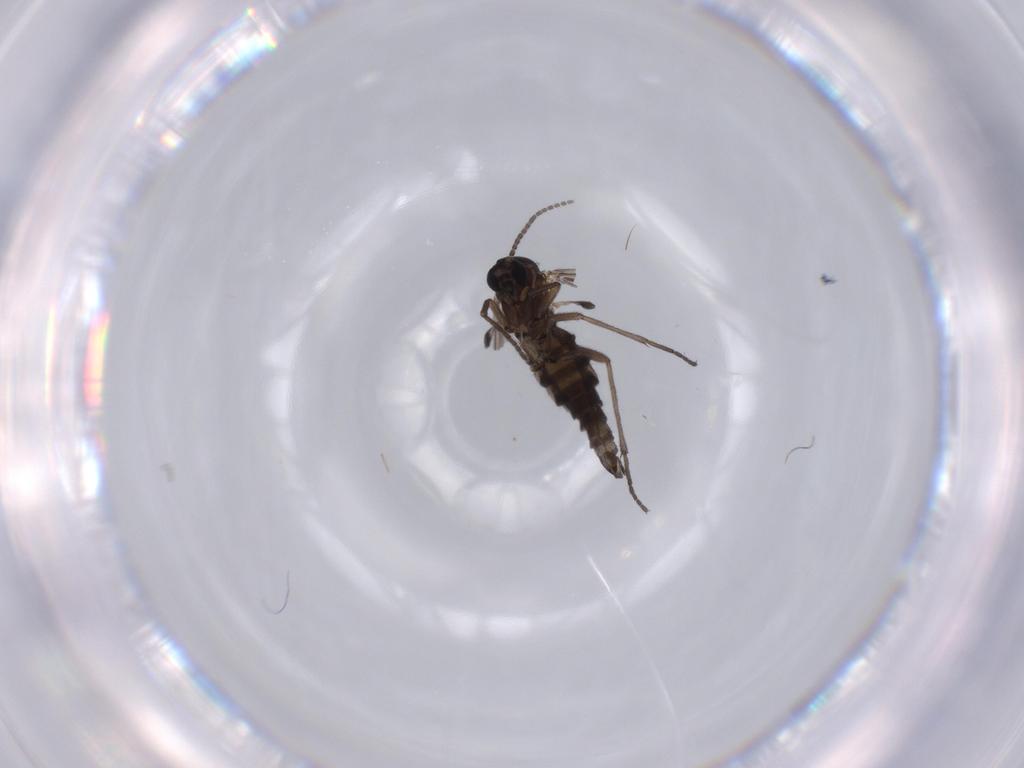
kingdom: Animalia
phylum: Arthropoda
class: Insecta
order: Diptera
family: Sciaridae
